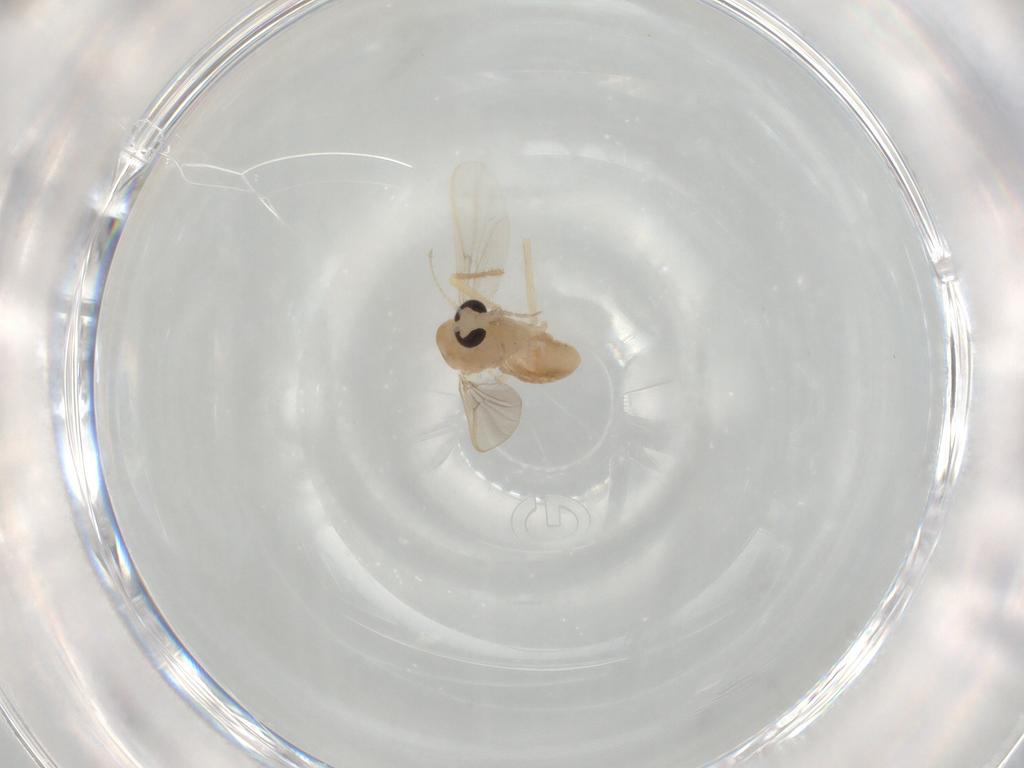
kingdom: Animalia
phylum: Arthropoda
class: Insecta
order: Diptera
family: Chironomidae
